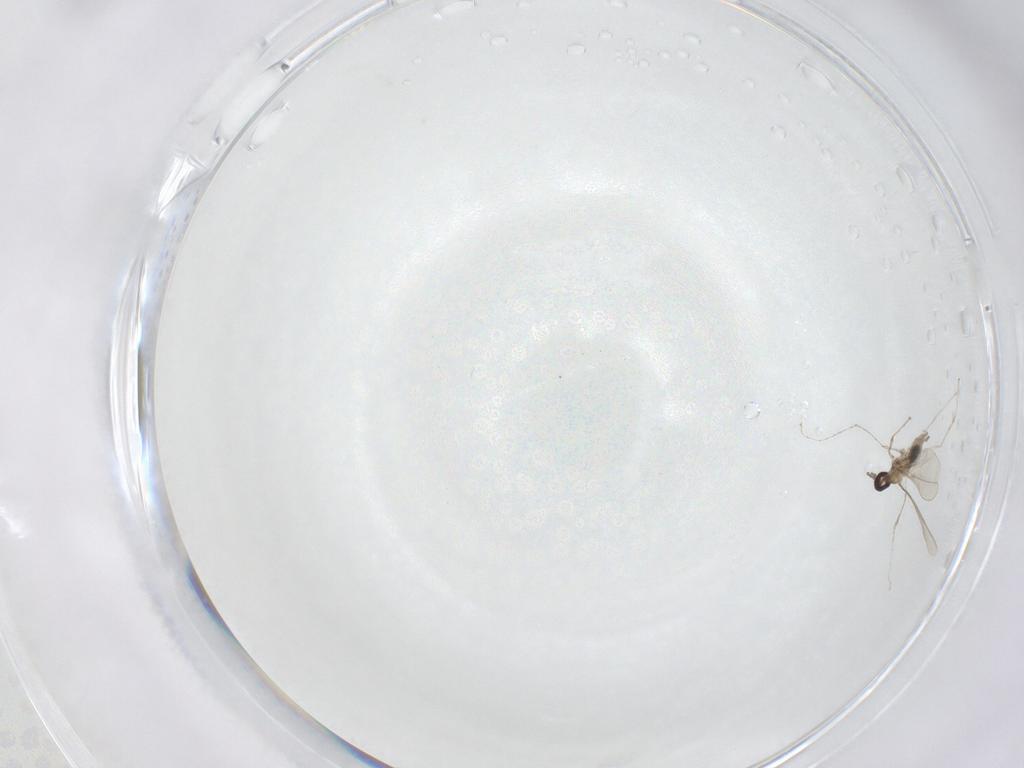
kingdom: Animalia
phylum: Arthropoda
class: Insecta
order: Diptera
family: Cecidomyiidae
